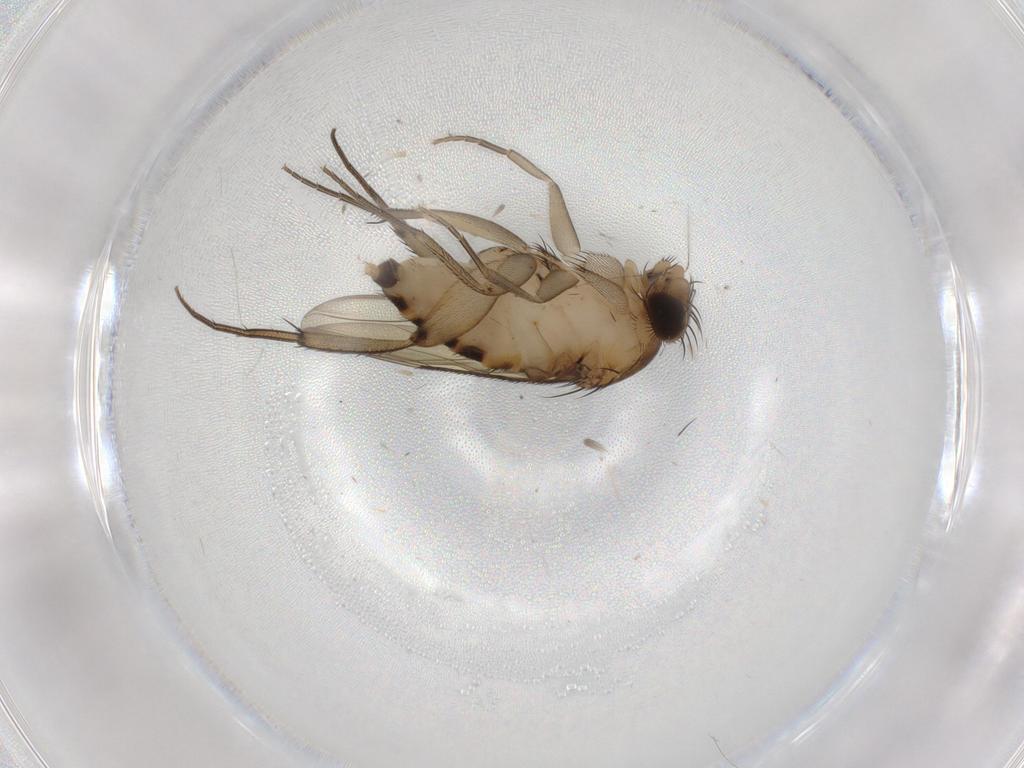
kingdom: Animalia
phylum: Arthropoda
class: Insecta
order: Diptera
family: Phoridae
